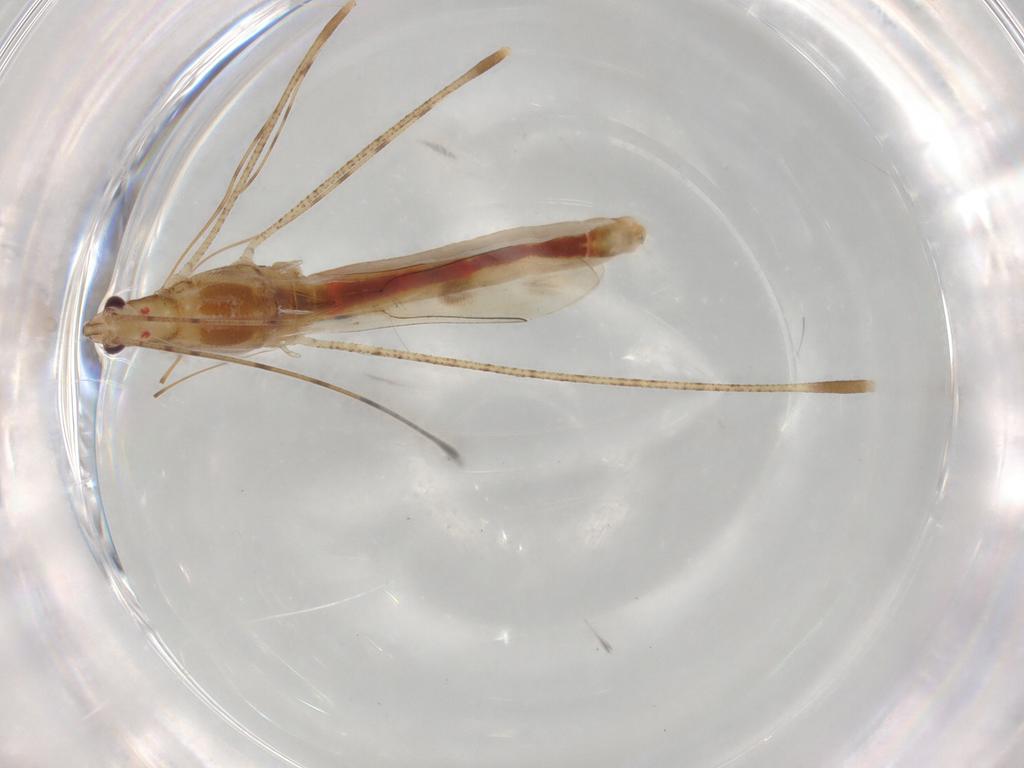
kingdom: Animalia
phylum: Arthropoda
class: Insecta
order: Hemiptera
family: Berytidae
